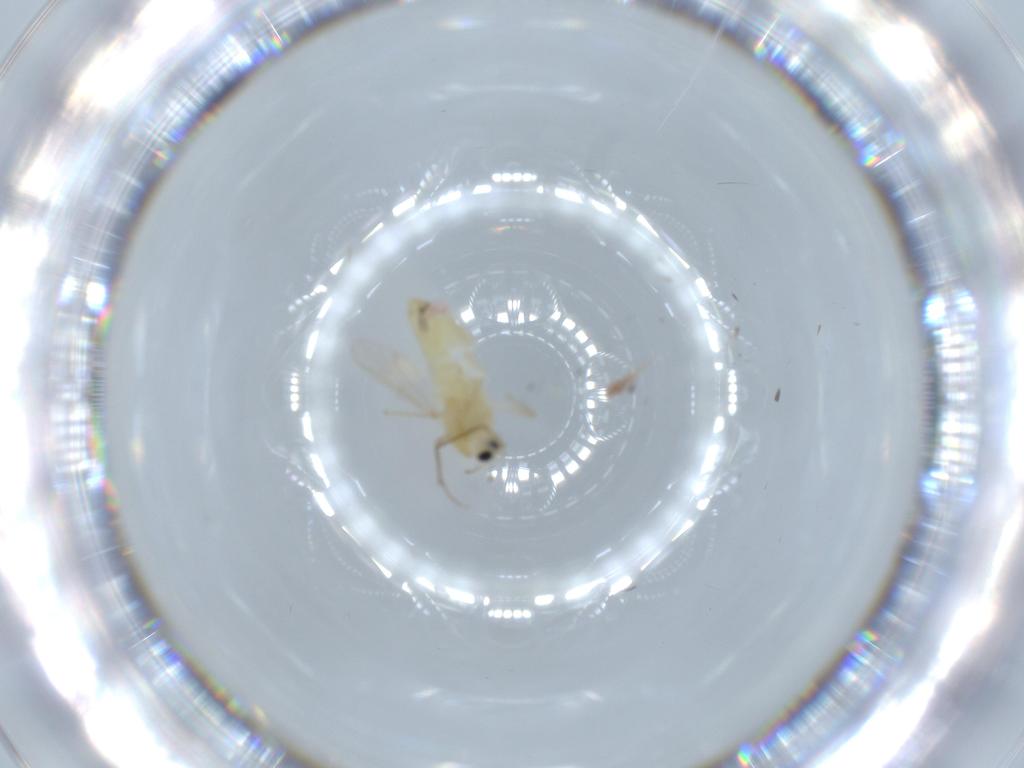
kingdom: Animalia
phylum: Arthropoda
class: Insecta
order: Diptera
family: Chironomidae
